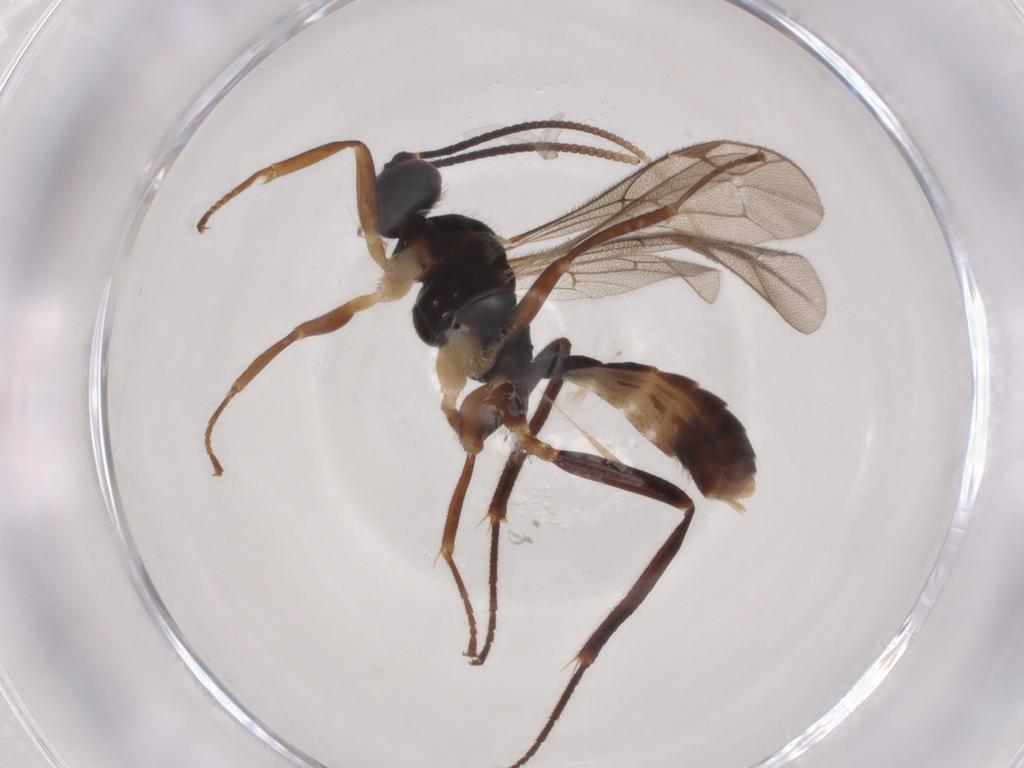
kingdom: Animalia
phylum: Arthropoda
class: Insecta
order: Hymenoptera
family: Ichneumonidae
